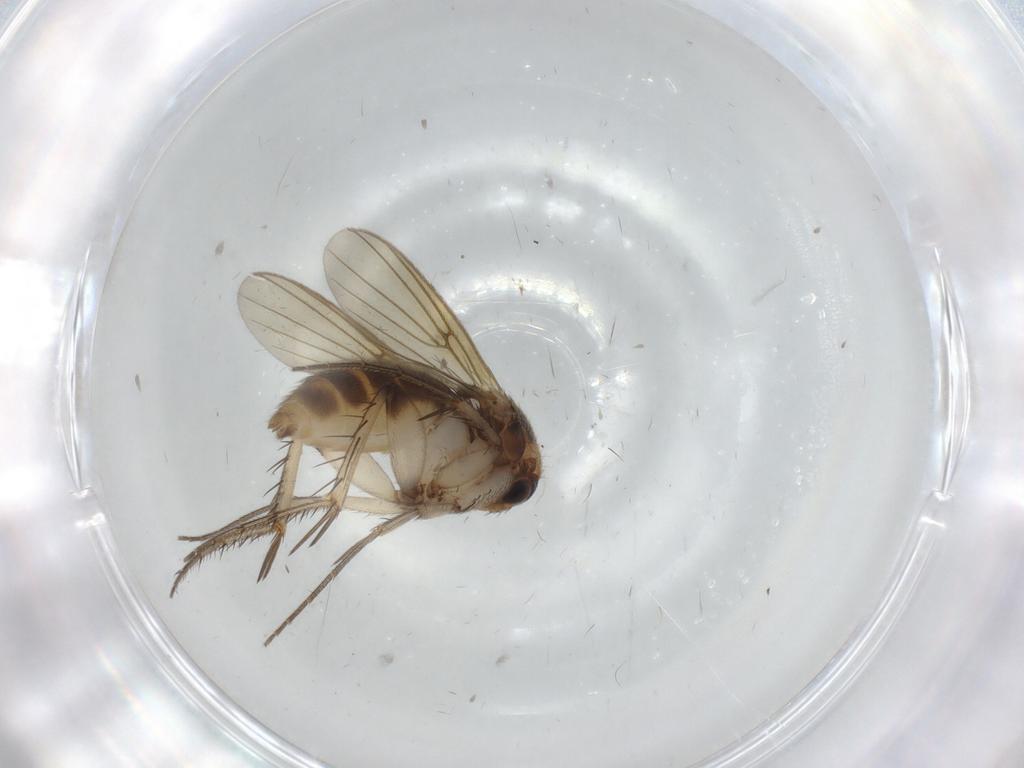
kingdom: Animalia
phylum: Arthropoda
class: Insecta
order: Diptera
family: Mycetophilidae
